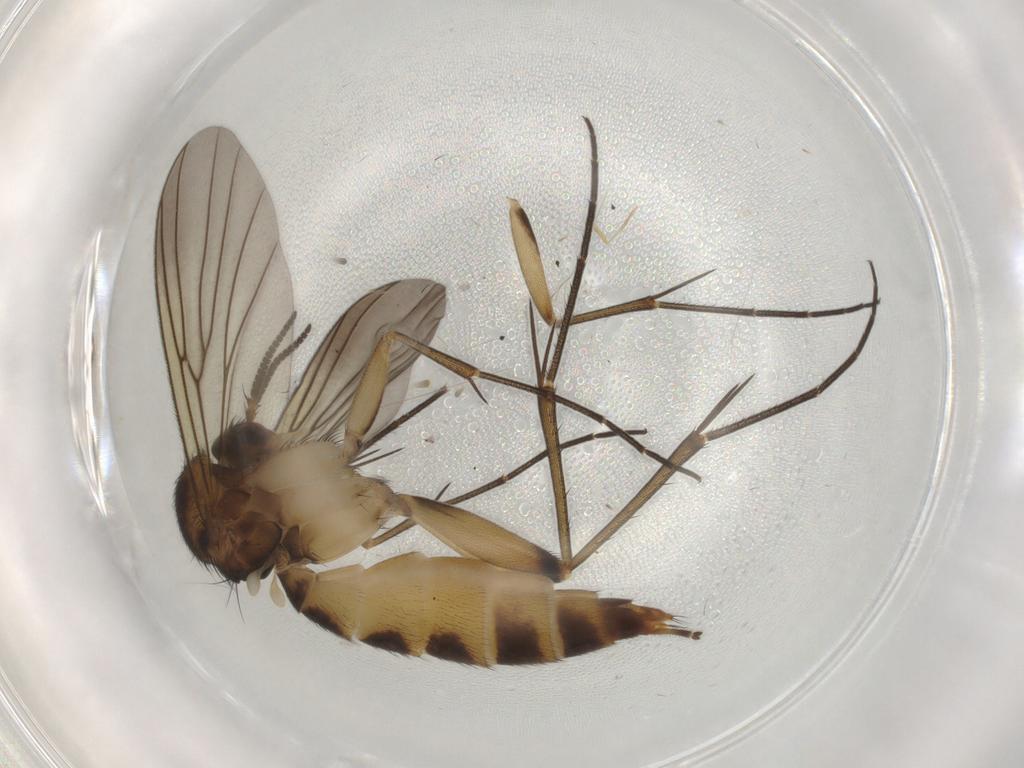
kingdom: Animalia
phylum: Arthropoda
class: Insecta
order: Diptera
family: Mycetophilidae
